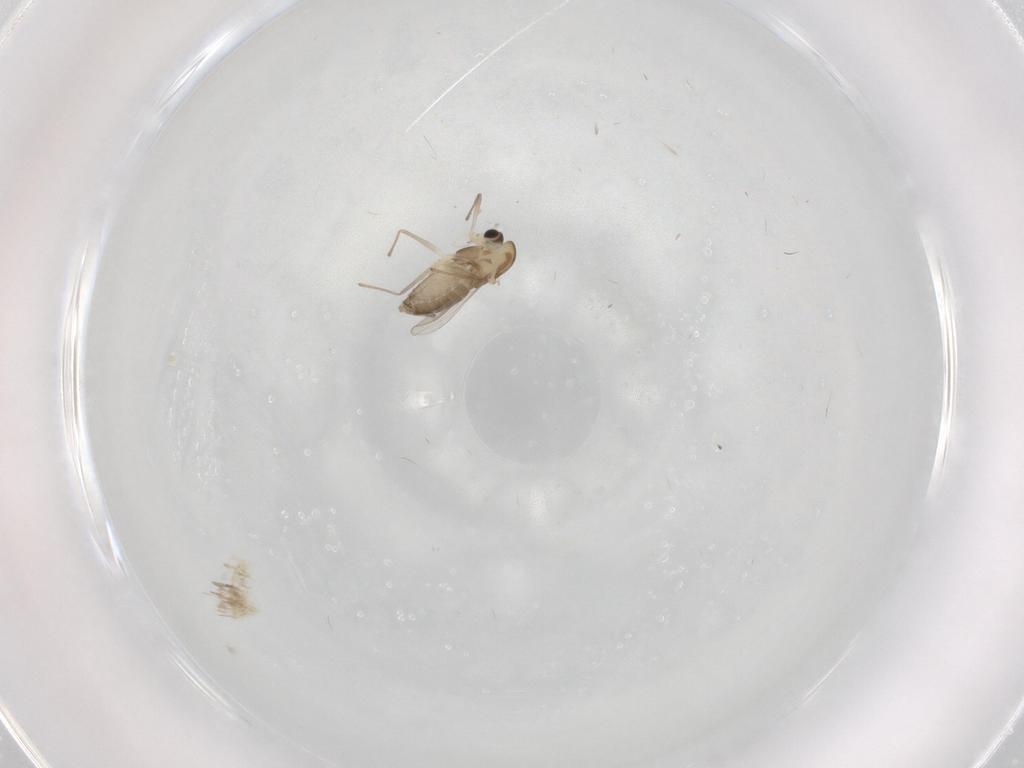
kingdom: Animalia
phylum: Arthropoda
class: Insecta
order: Diptera
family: Chironomidae
